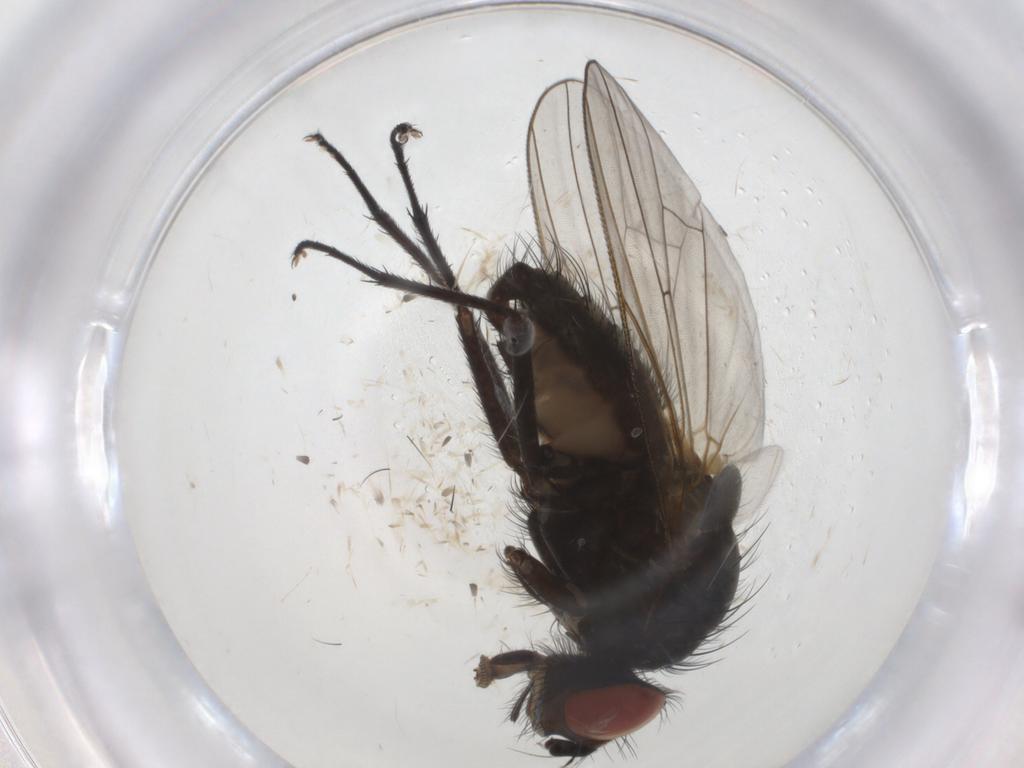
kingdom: Animalia
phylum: Arthropoda
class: Insecta
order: Diptera
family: Anthomyiidae
